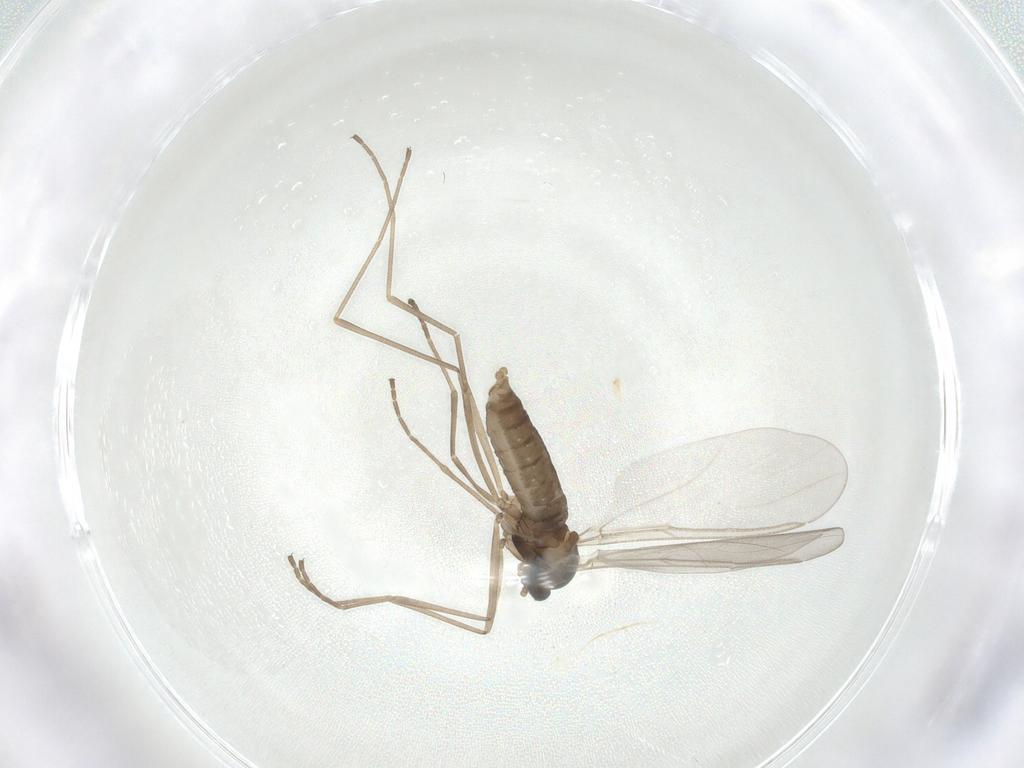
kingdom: Animalia
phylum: Arthropoda
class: Insecta
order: Diptera
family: Cecidomyiidae
